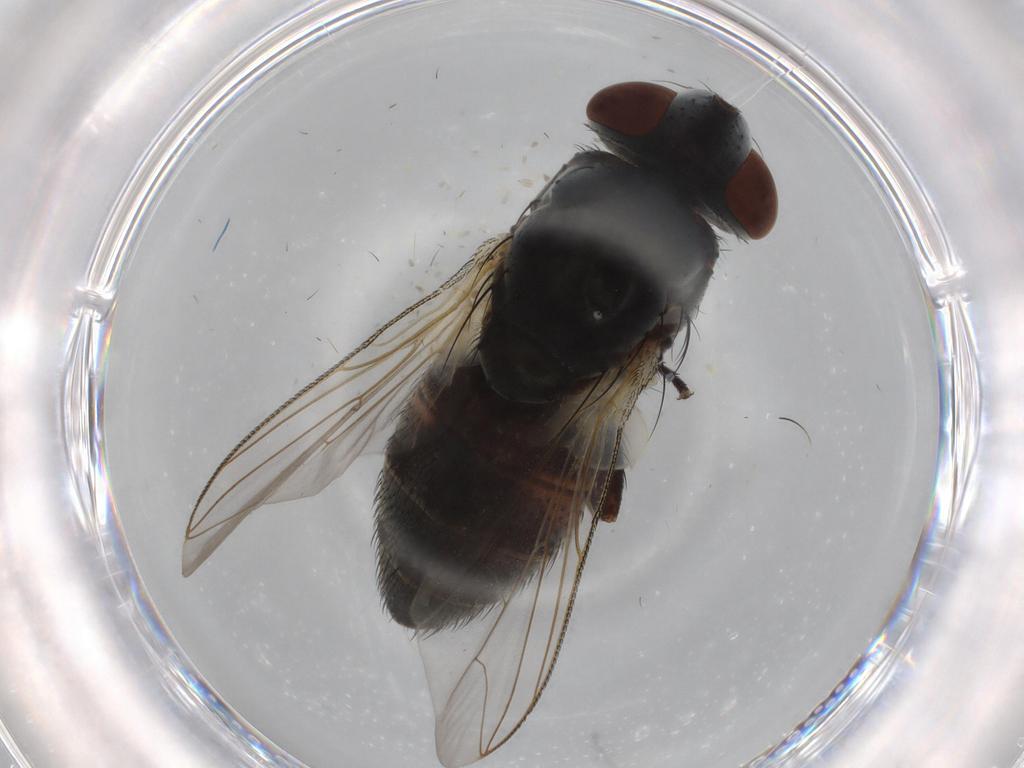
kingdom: Animalia
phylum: Arthropoda
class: Insecta
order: Diptera
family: Sarcophagidae
